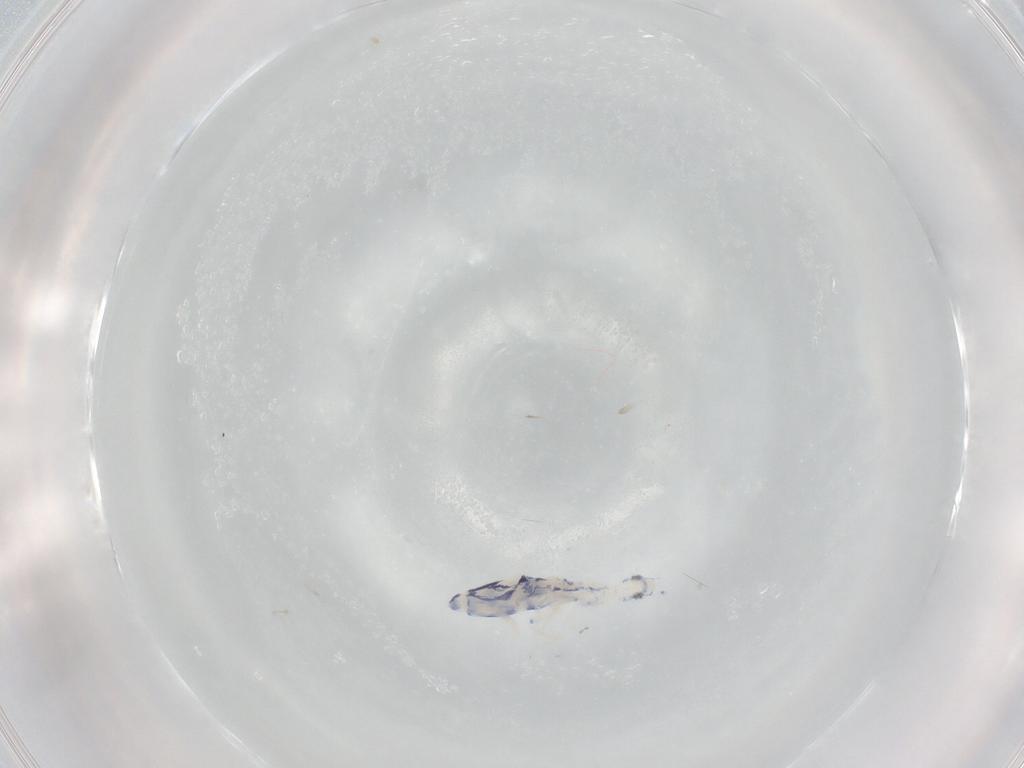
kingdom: Animalia
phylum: Arthropoda
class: Collembola
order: Entomobryomorpha
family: Entomobryidae
